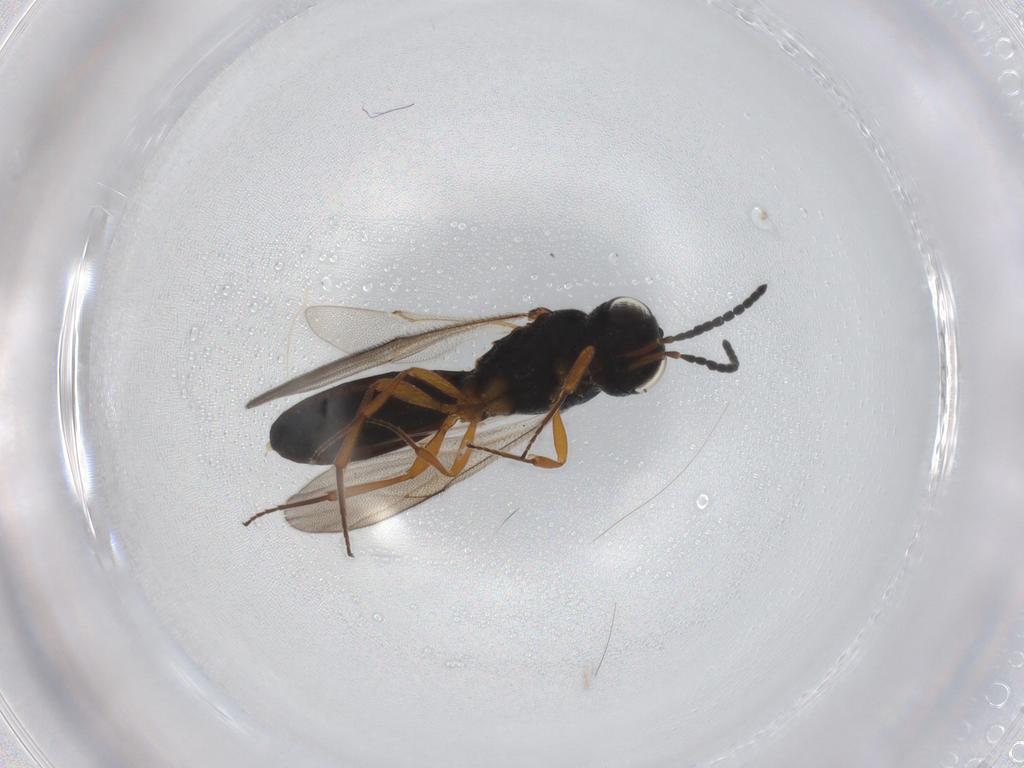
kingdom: Animalia
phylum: Arthropoda
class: Insecta
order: Hymenoptera
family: Scelionidae
